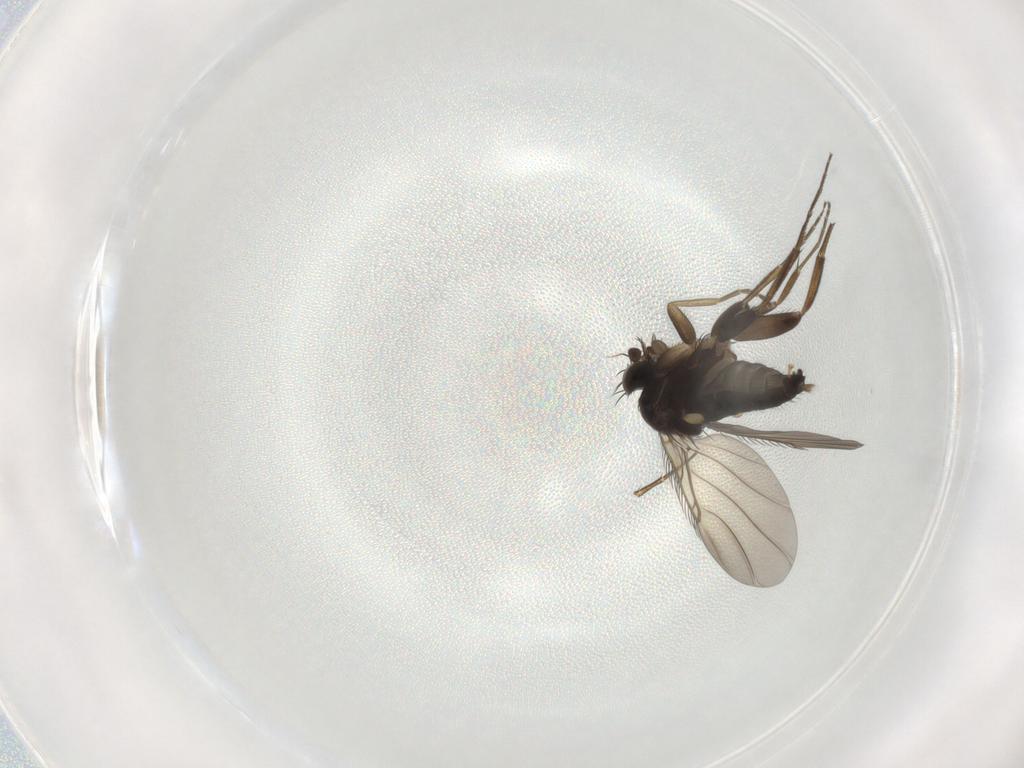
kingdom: Animalia
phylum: Arthropoda
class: Insecta
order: Diptera
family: Phoridae
